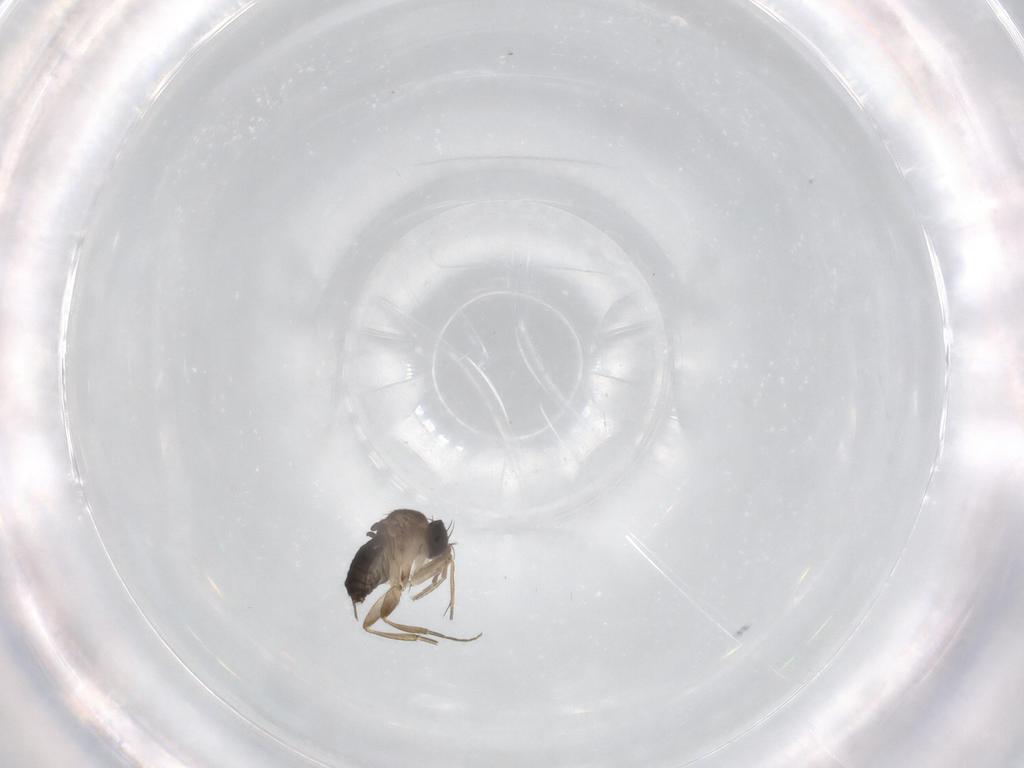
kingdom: Animalia
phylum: Arthropoda
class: Insecta
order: Diptera
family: Phoridae
